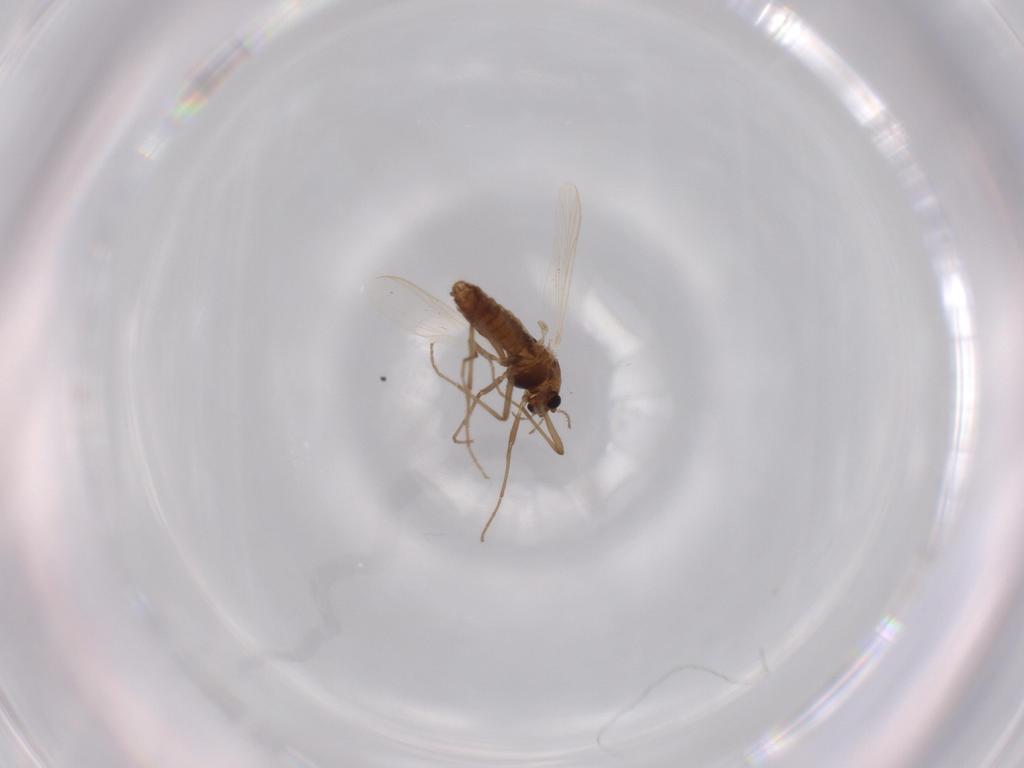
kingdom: Animalia
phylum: Arthropoda
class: Insecta
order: Diptera
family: Chironomidae
